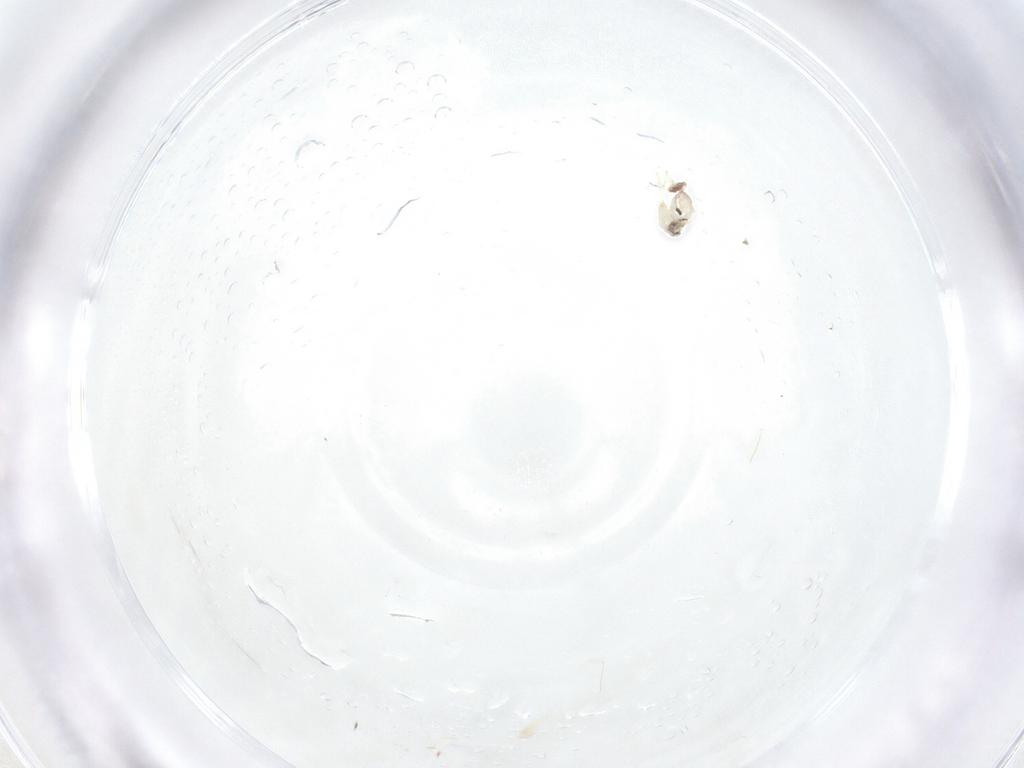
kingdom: Animalia
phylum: Arthropoda
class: Insecta
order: Diptera
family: Cecidomyiidae
